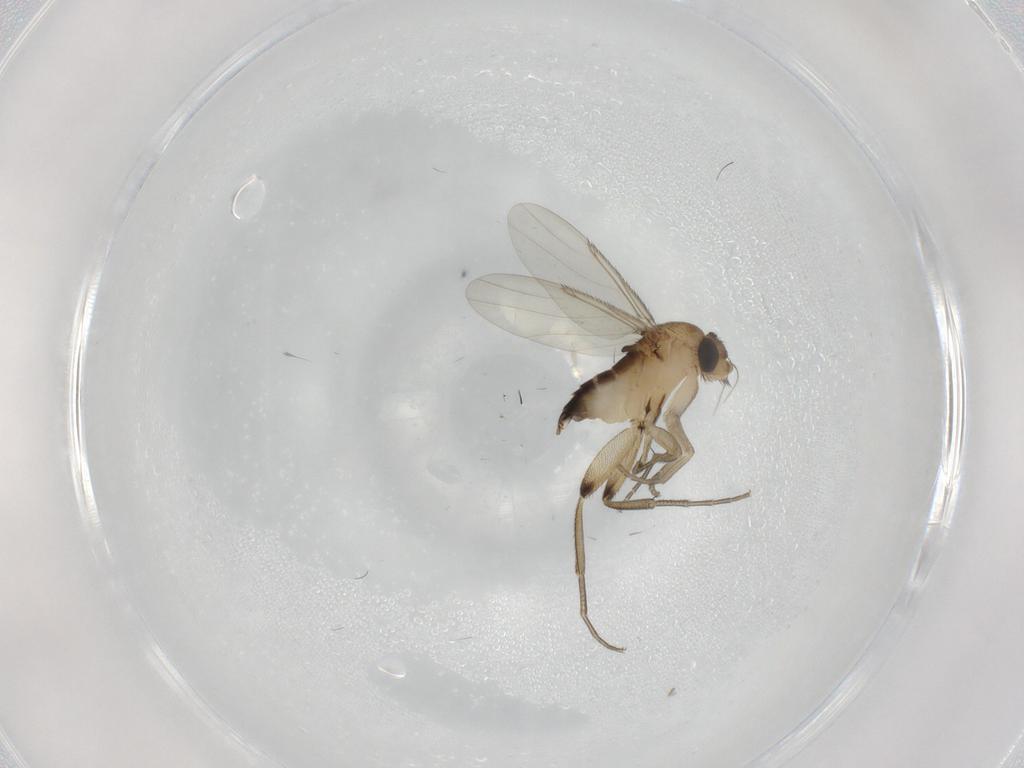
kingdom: Animalia
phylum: Arthropoda
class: Insecta
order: Diptera
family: Phoridae
